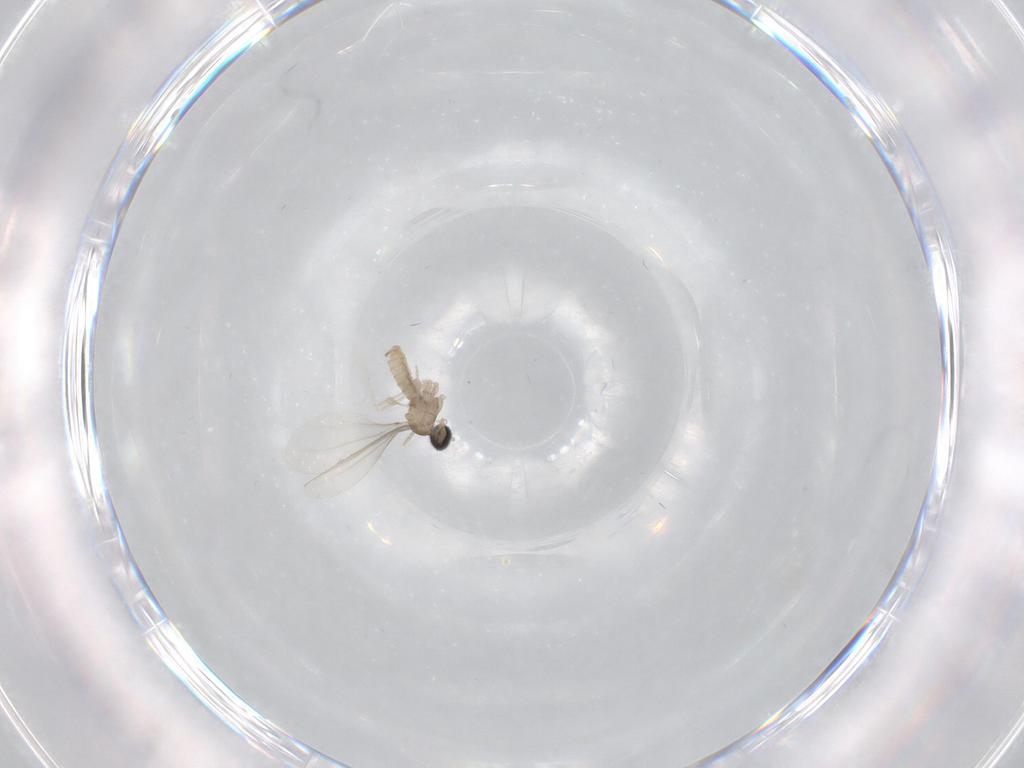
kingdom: Animalia
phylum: Arthropoda
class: Insecta
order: Diptera
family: Cecidomyiidae
